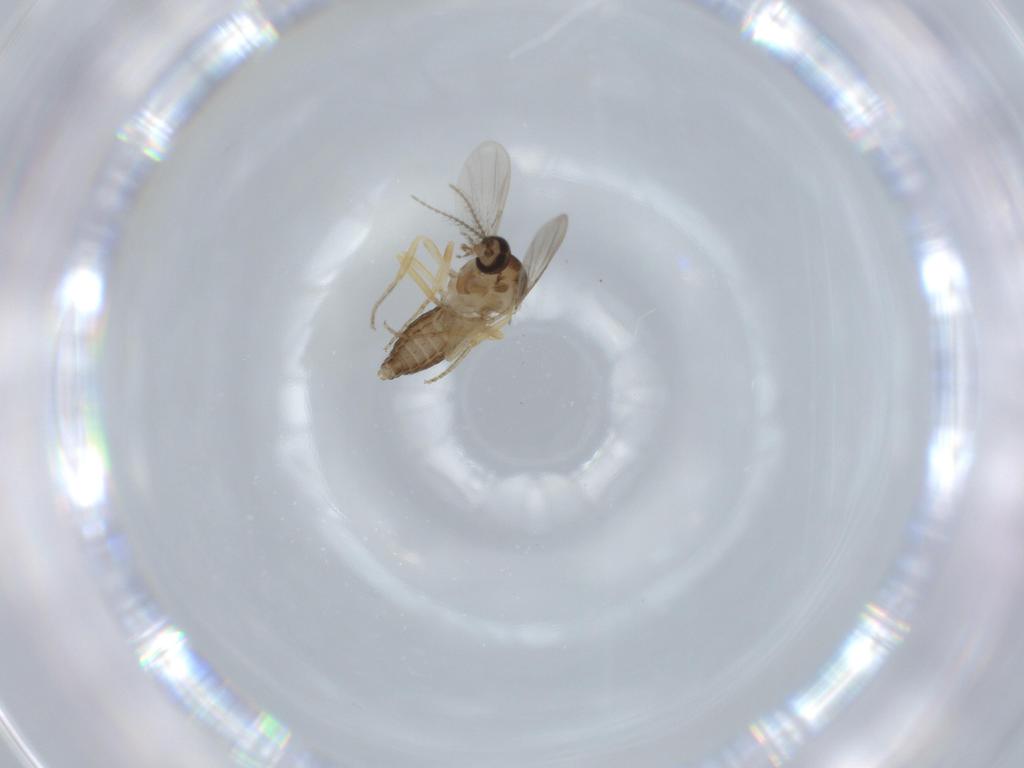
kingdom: Animalia
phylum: Arthropoda
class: Insecta
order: Diptera
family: Ceratopogonidae
